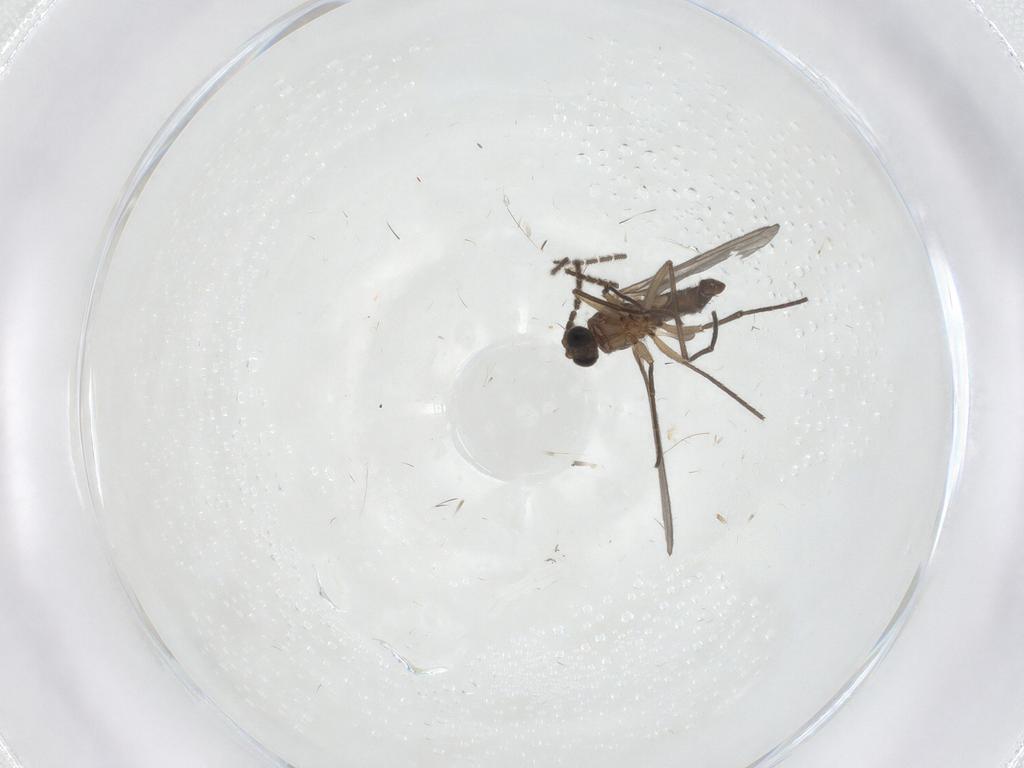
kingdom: Animalia
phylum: Arthropoda
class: Insecta
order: Diptera
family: Sciaridae
